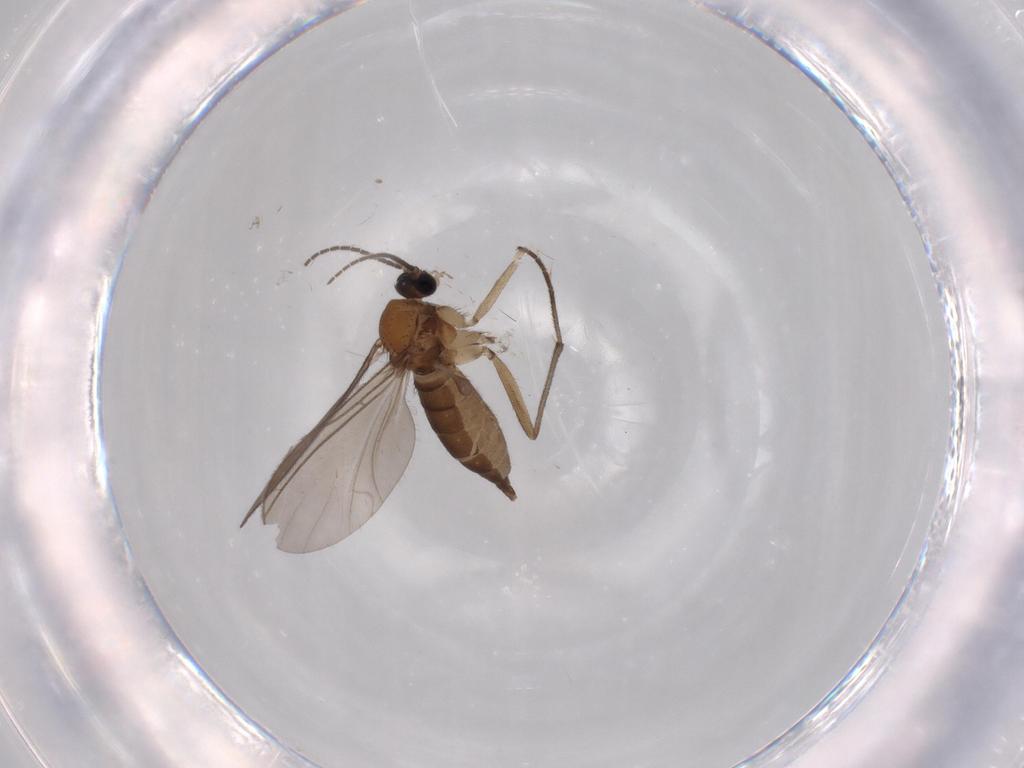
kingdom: Animalia
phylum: Arthropoda
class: Insecta
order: Diptera
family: Sciaridae
